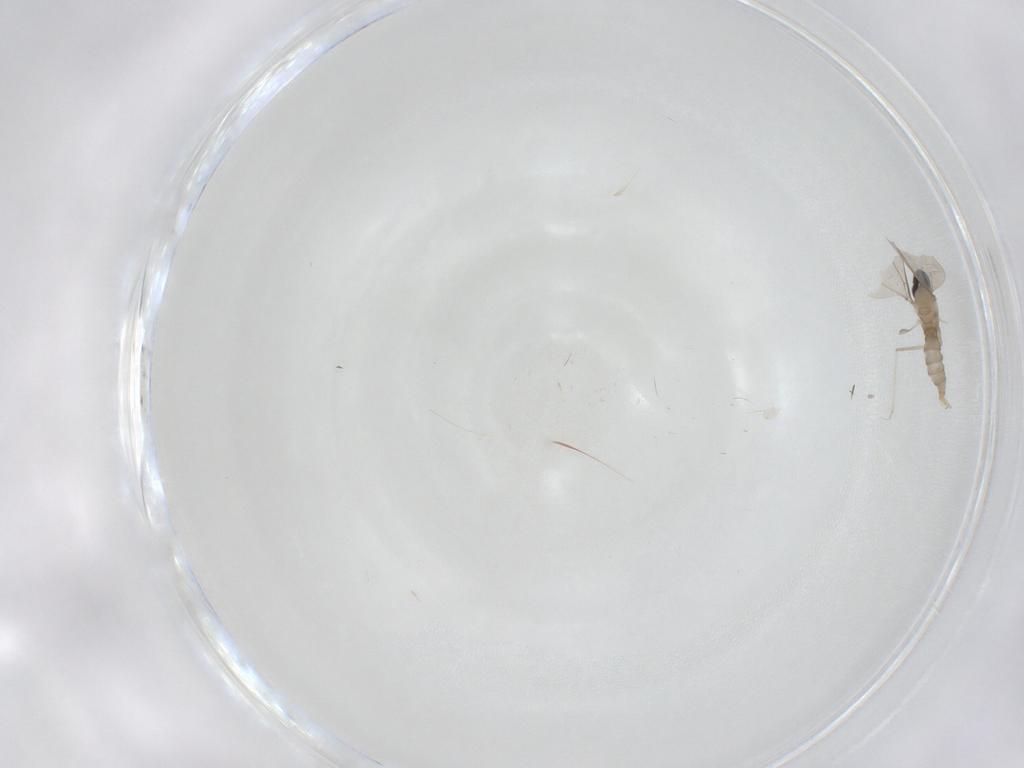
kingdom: Animalia
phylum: Arthropoda
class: Insecta
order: Diptera
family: Cecidomyiidae
